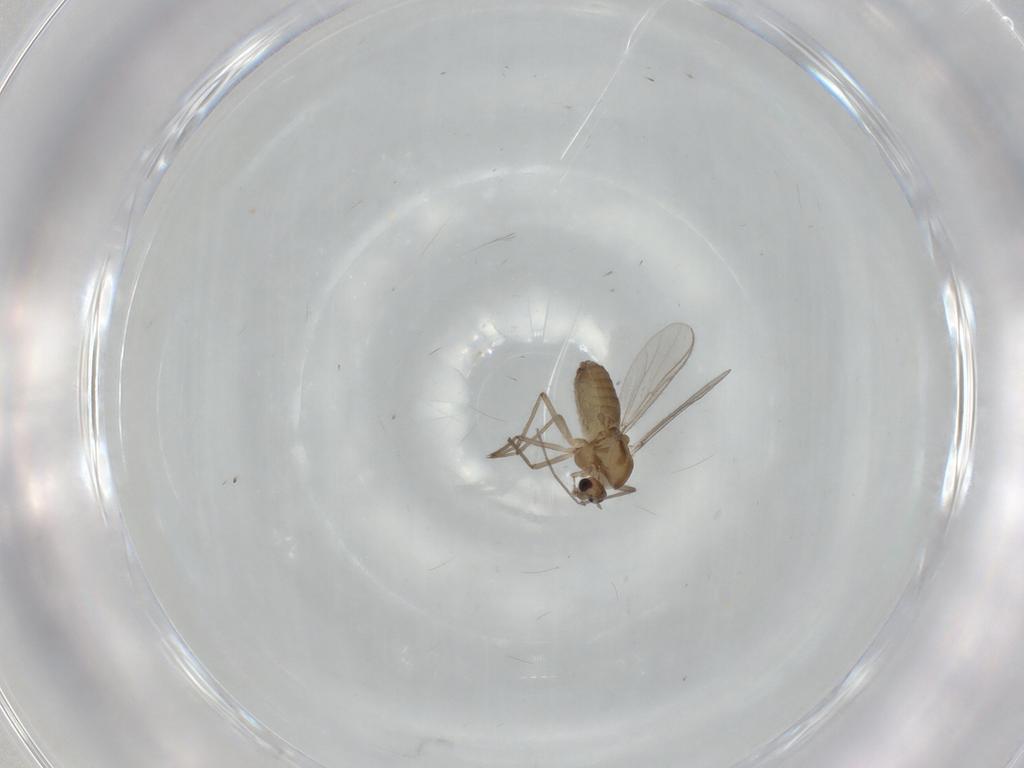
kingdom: Animalia
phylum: Arthropoda
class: Insecta
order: Diptera
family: Chironomidae
